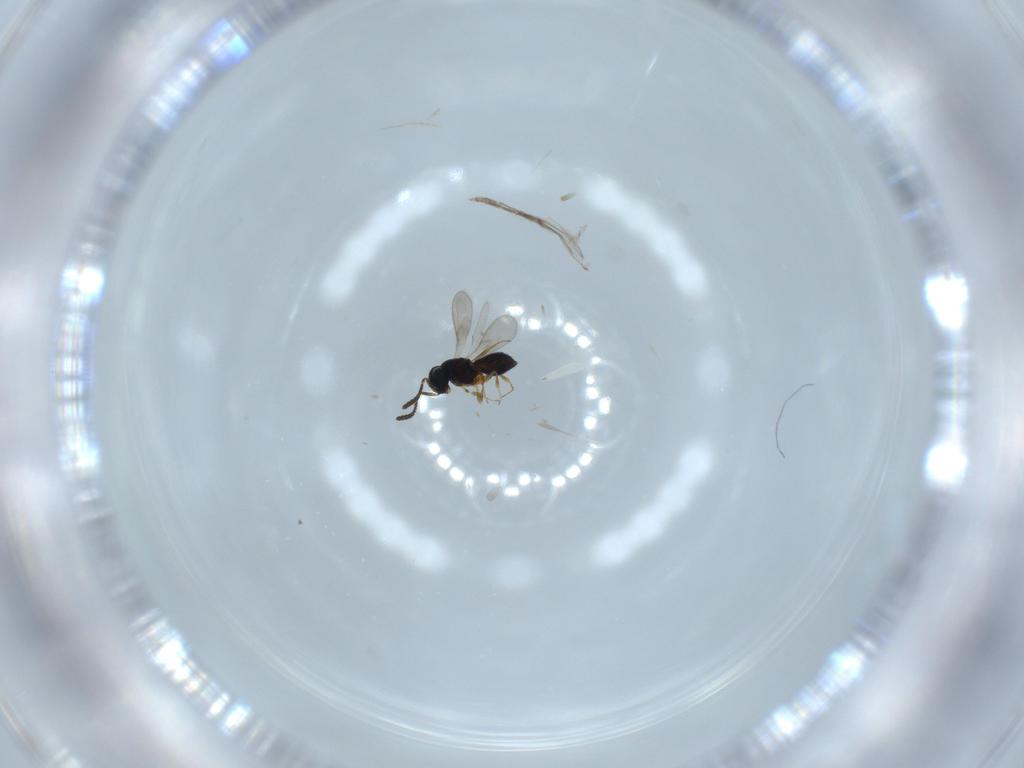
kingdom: Animalia
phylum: Arthropoda
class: Insecta
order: Hymenoptera
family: Scelionidae
